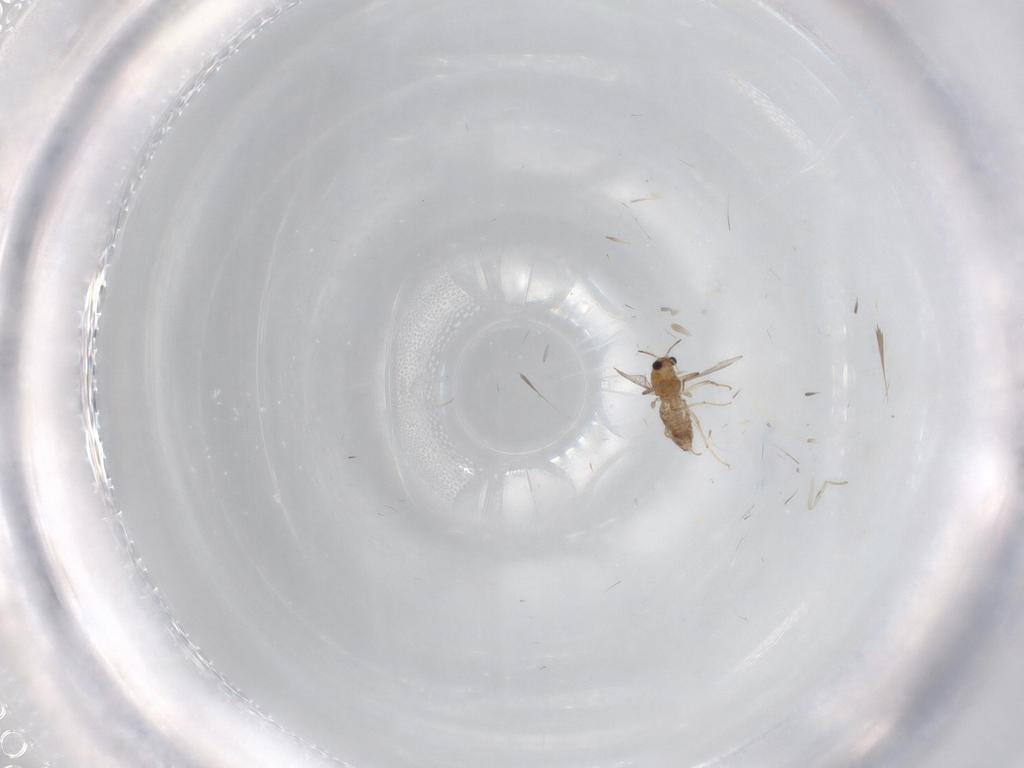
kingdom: Animalia
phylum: Arthropoda
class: Insecta
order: Diptera
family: Cecidomyiidae
